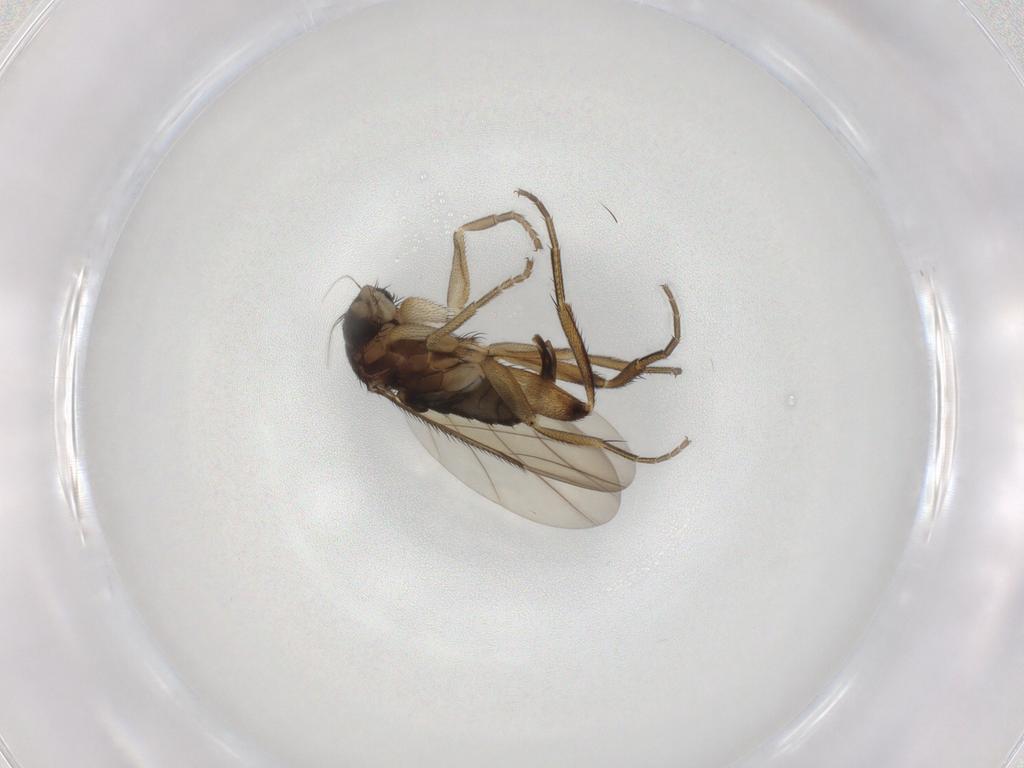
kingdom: Animalia
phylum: Arthropoda
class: Insecta
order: Diptera
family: Phoridae
